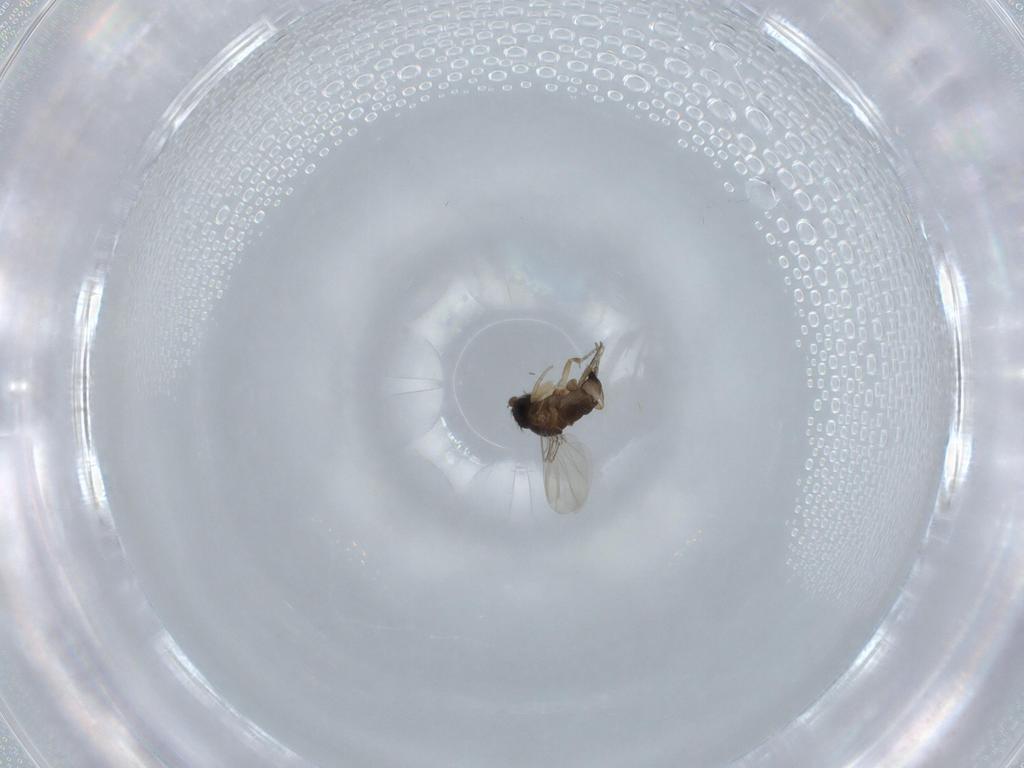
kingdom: Animalia
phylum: Arthropoda
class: Insecta
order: Diptera
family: Phoridae
